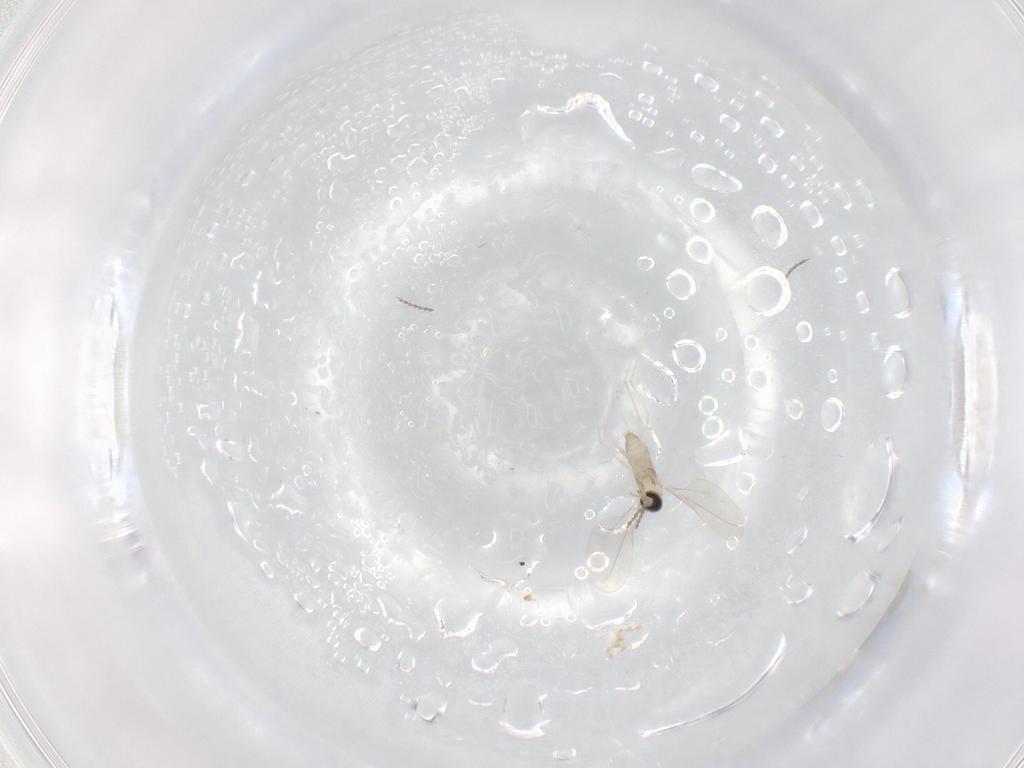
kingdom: Animalia
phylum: Arthropoda
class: Insecta
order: Diptera
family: Cecidomyiidae
